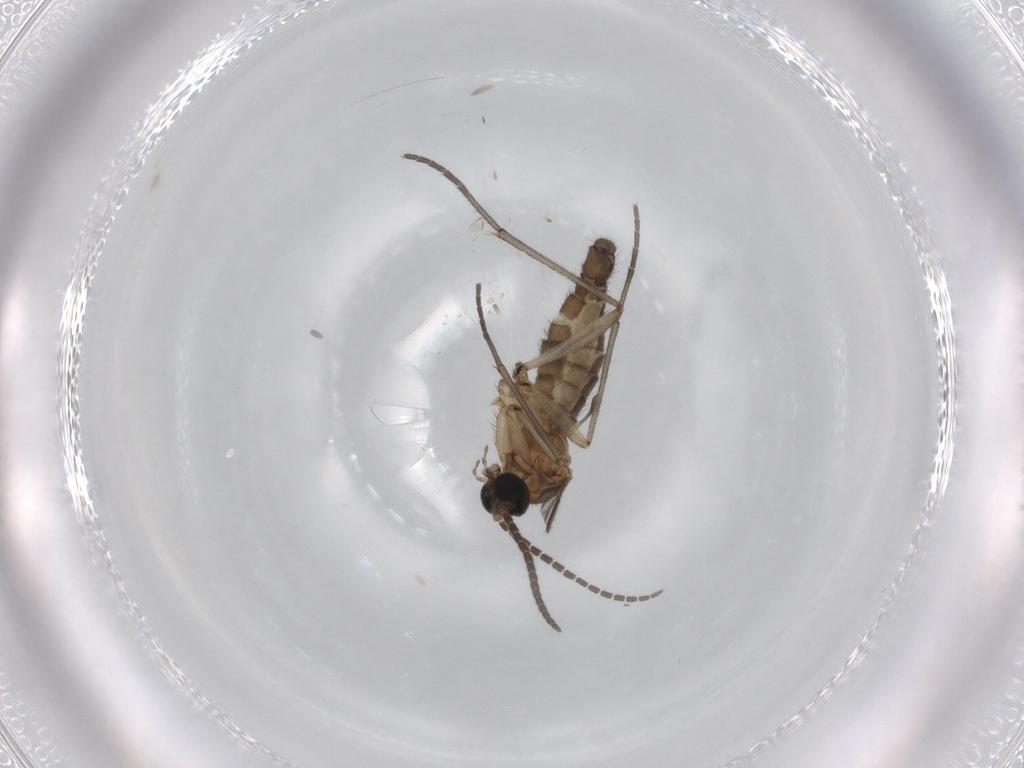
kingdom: Animalia
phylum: Arthropoda
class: Insecta
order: Diptera
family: Sciaridae
